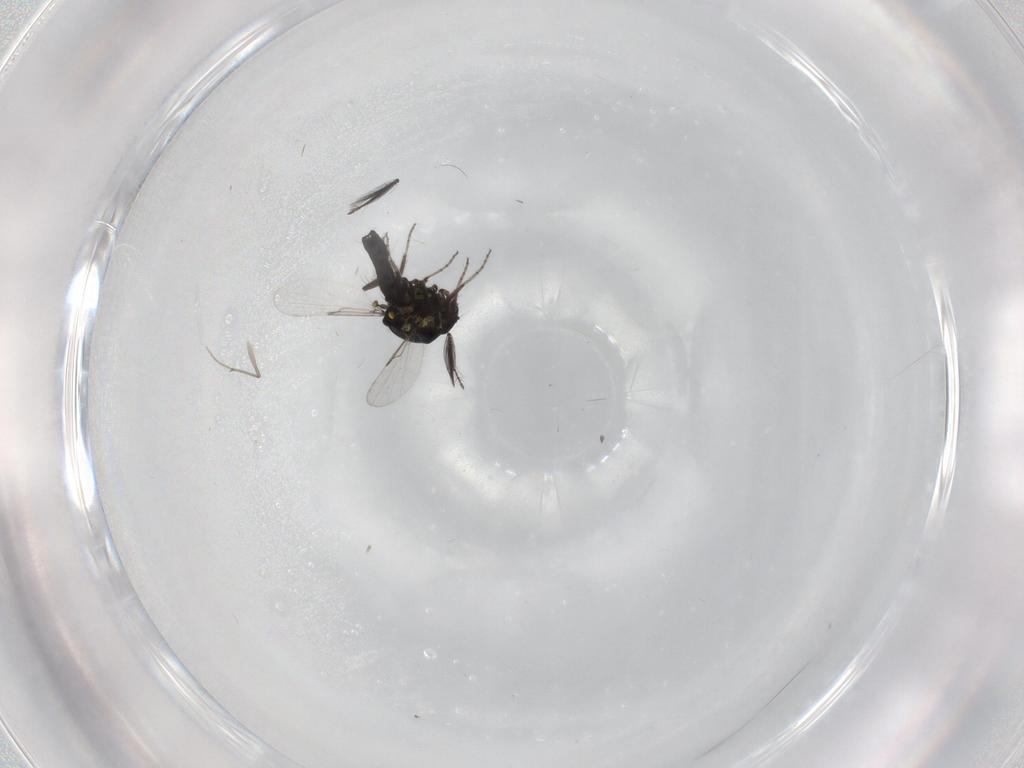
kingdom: Animalia
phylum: Arthropoda
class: Insecta
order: Diptera
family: Ceratopogonidae
